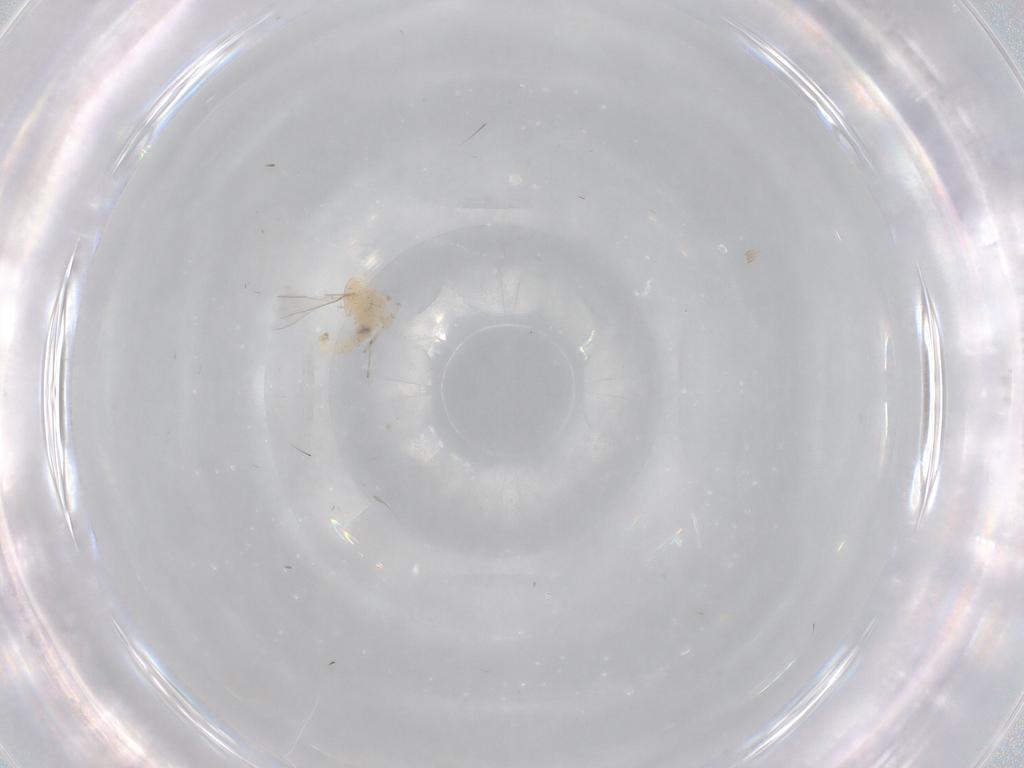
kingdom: Animalia
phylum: Arthropoda
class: Insecta
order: Diptera
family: Cecidomyiidae
